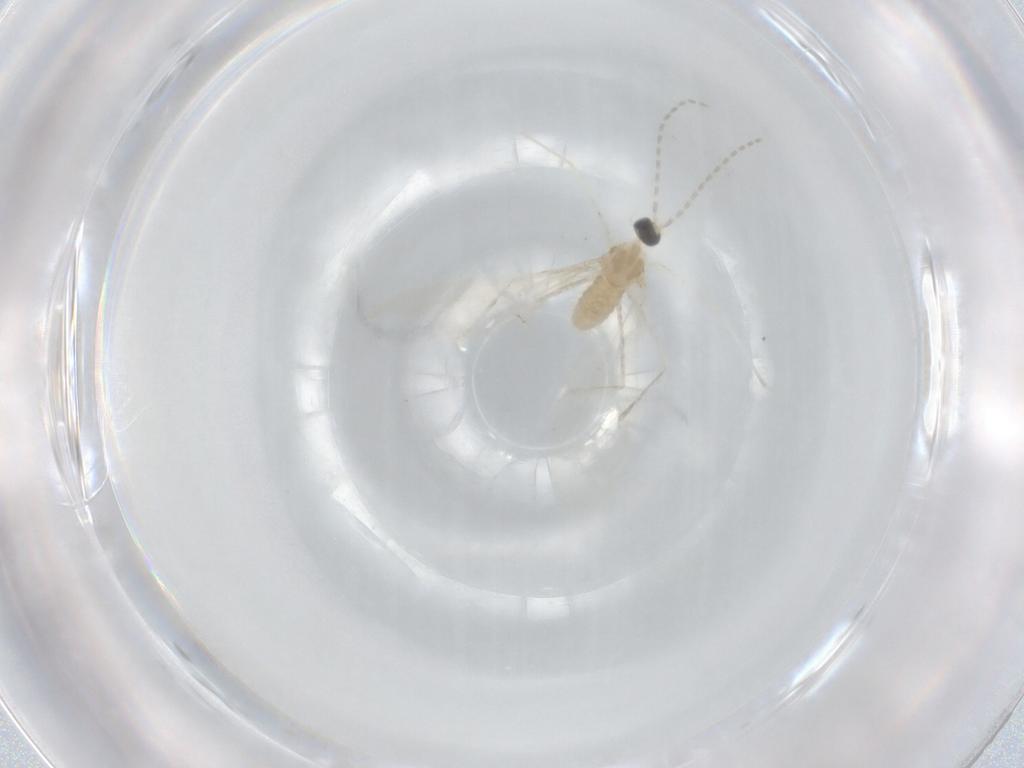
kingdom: Animalia
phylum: Arthropoda
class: Insecta
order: Diptera
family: Cecidomyiidae
